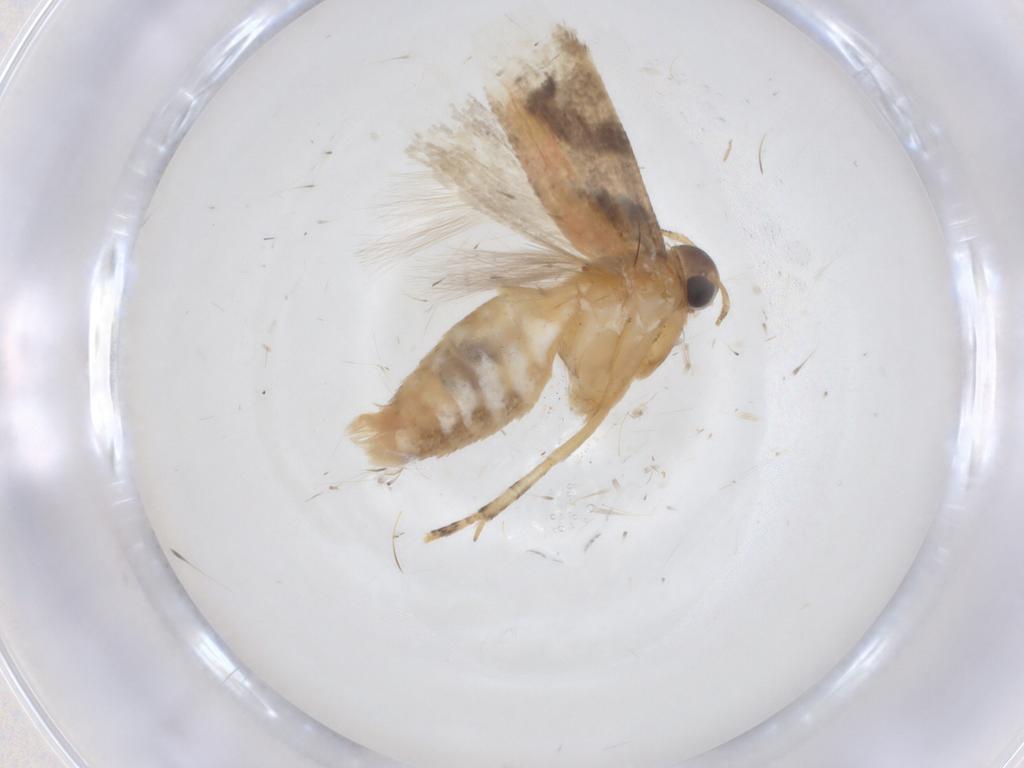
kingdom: Animalia
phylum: Arthropoda
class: Insecta
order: Lepidoptera
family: Gelechiidae
